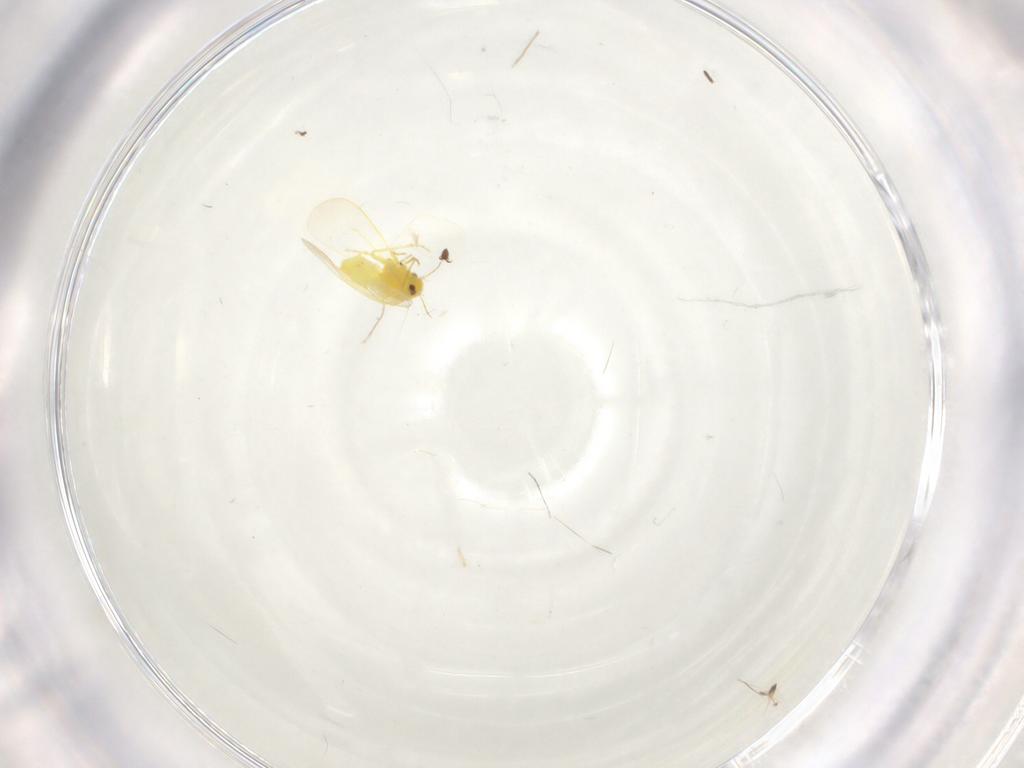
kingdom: Animalia
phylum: Arthropoda
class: Insecta
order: Hemiptera
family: Aleyrodidae
